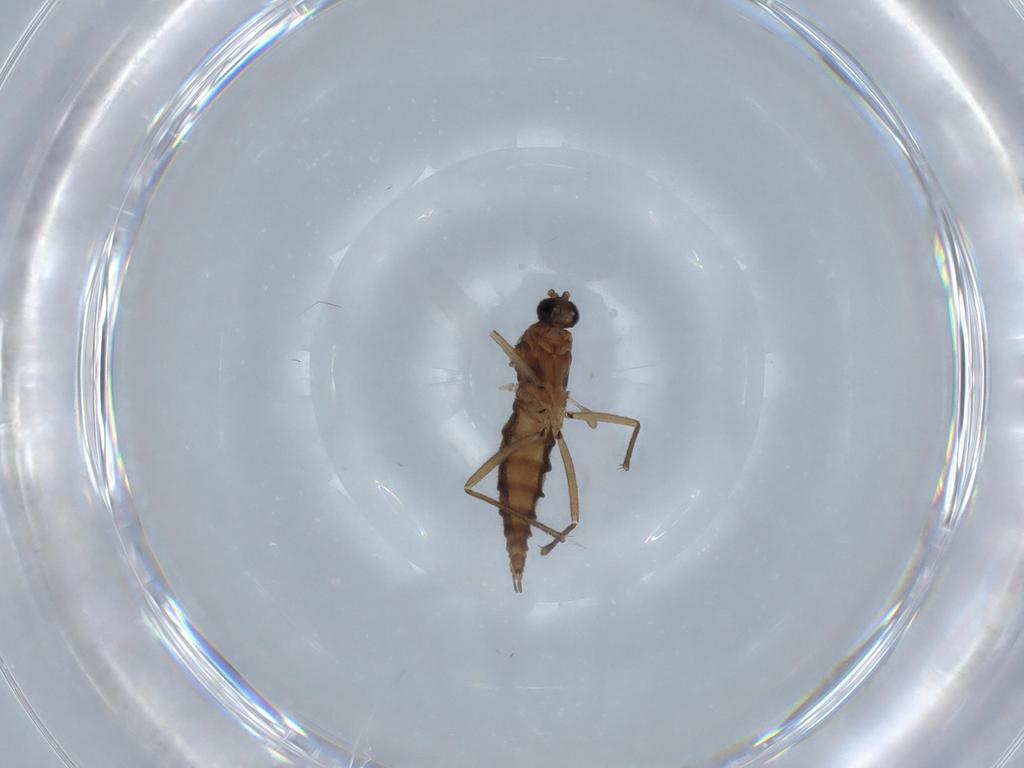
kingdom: Animalia
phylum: Arthropoda
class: Insecta
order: Diptera
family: Sciaridae
